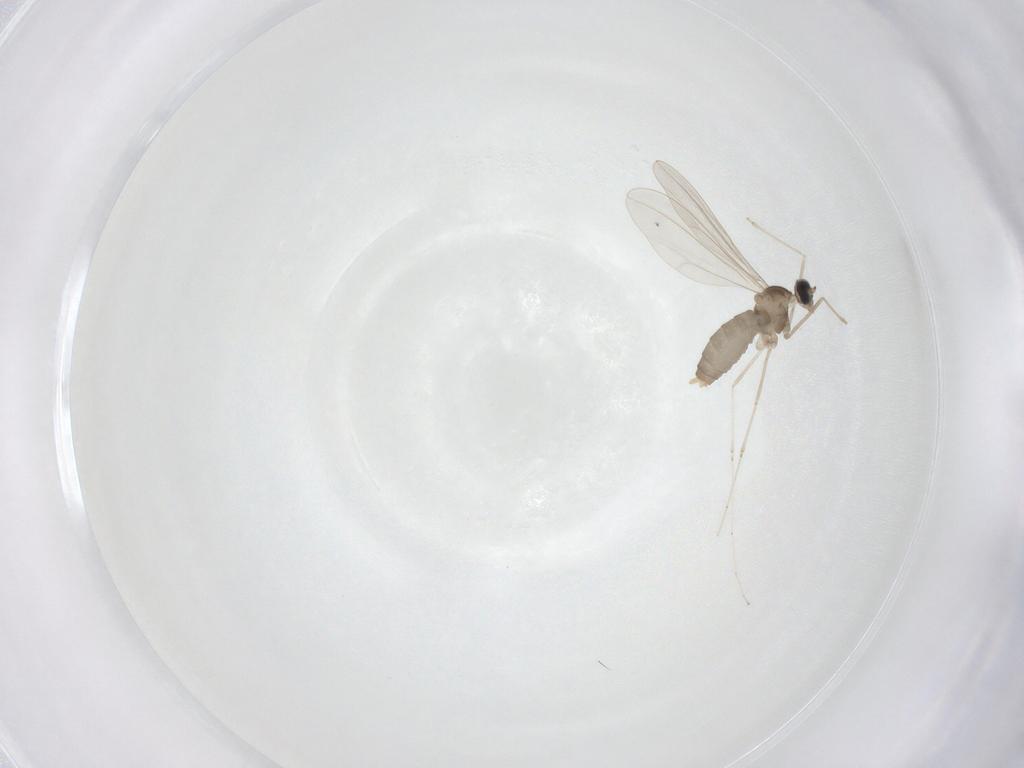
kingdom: Animalia
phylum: Arthropoda
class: Insecta
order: Diptera
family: Cecidomyiidae
